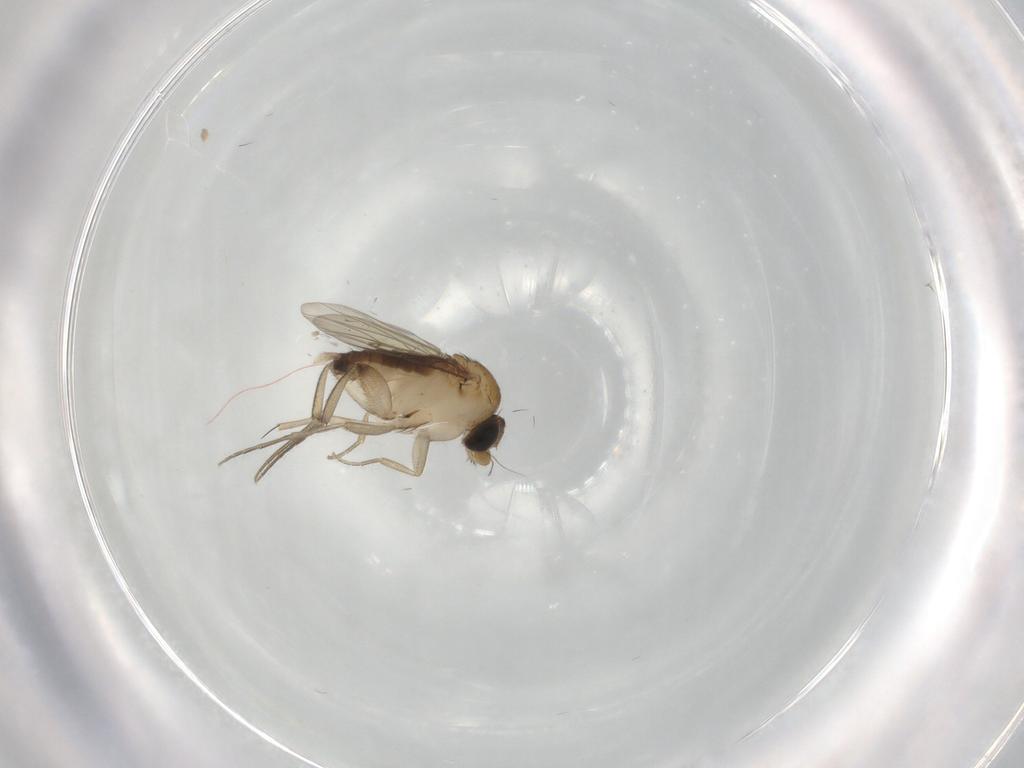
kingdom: Animalia
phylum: Arthropoda
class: Insecta
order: Diptera
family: Phoridae
